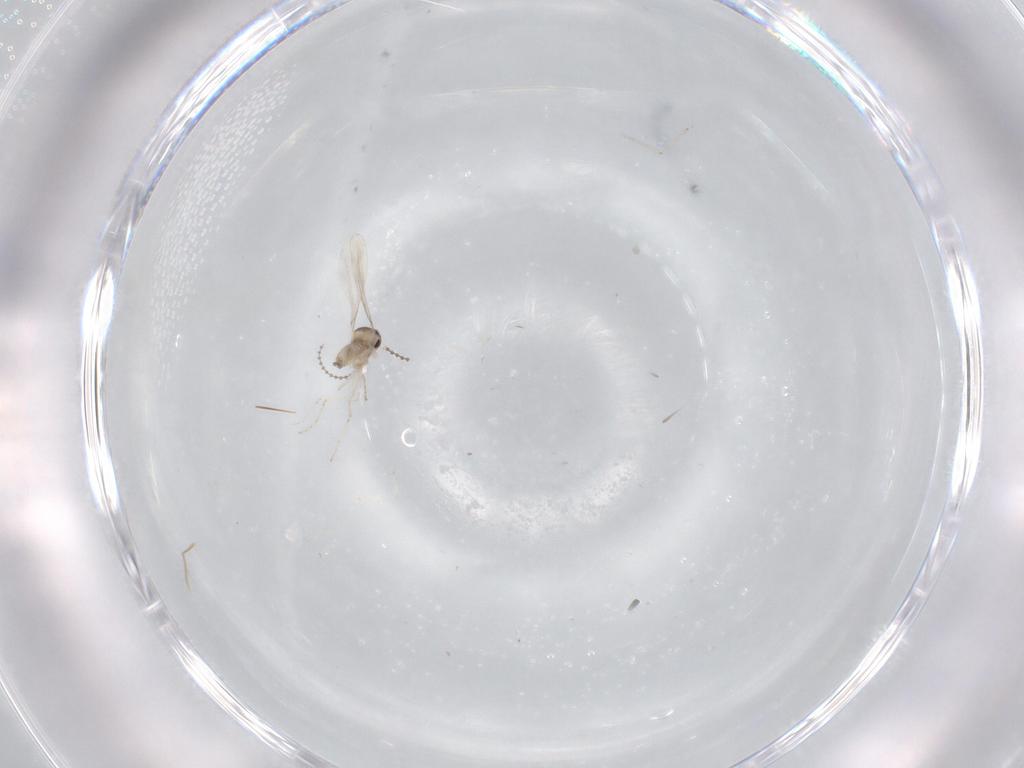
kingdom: Animalia
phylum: Arthropoda
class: Insecta
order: Diptera
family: Cecidomyiidae
